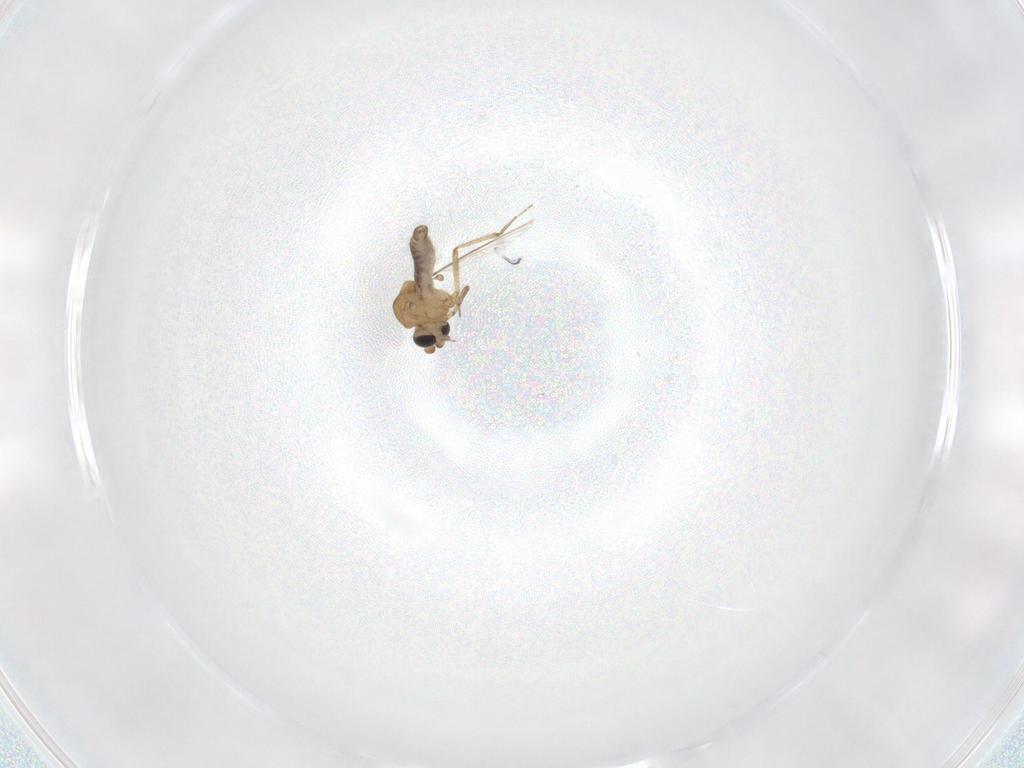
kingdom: Animalia
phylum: Arthropoda
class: Insecta
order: Diptera
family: Ceratopogonidae
